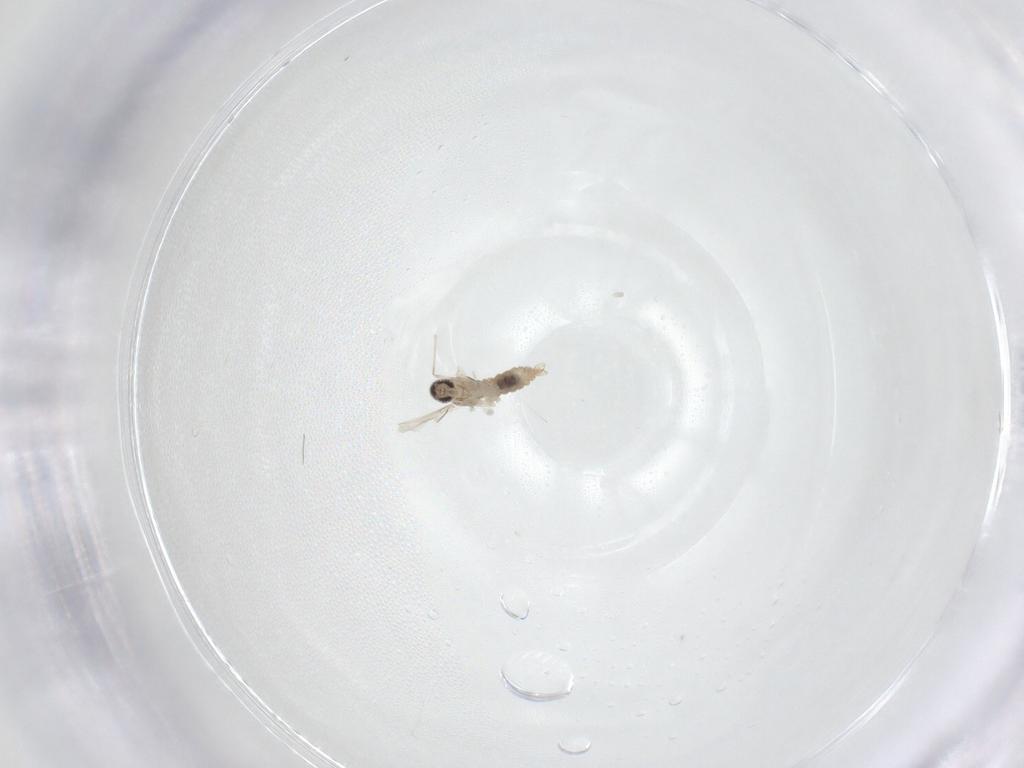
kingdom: Animalia
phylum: Arthropoda
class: Insecta
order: Diptera
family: Cecidomyiidae
